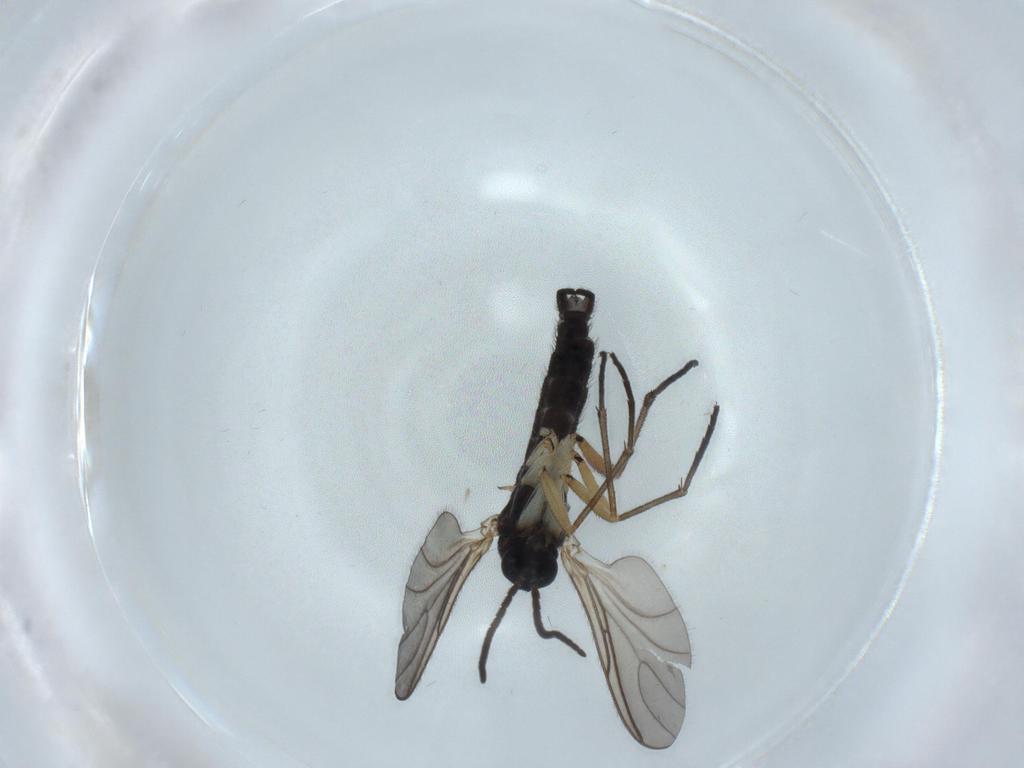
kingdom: Animalia
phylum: Arthropoda
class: Insecta
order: Diptera
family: Sciaridae
